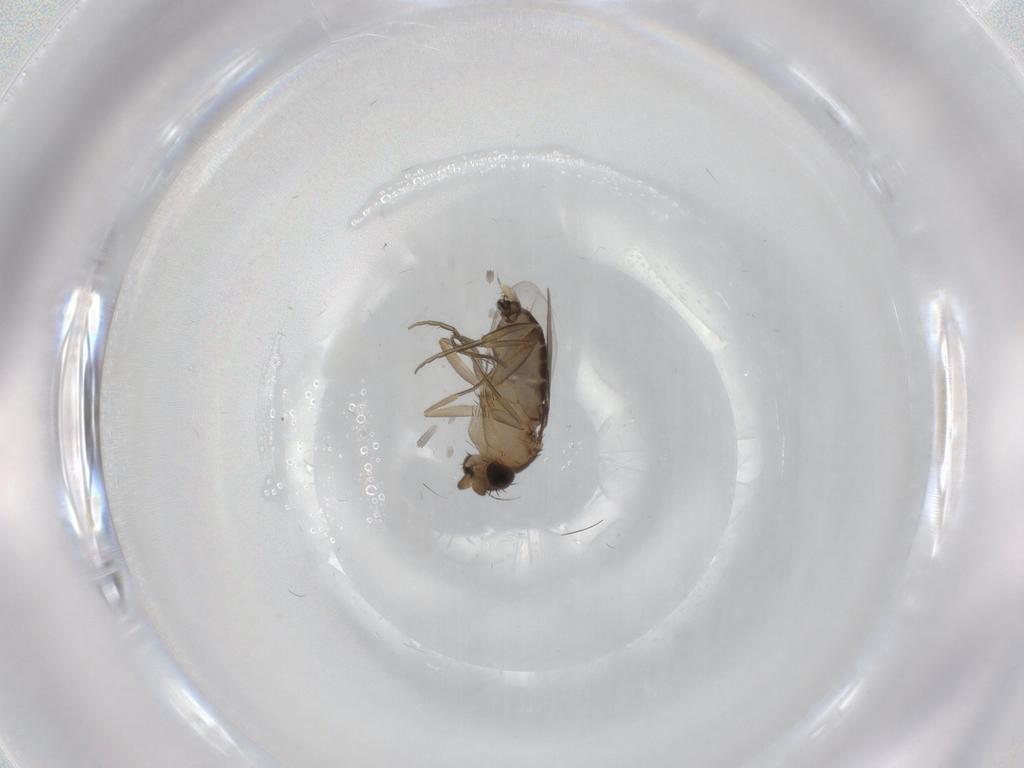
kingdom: Animalia
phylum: Arthropoda
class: Insecta
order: Diptera
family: Phoridae
